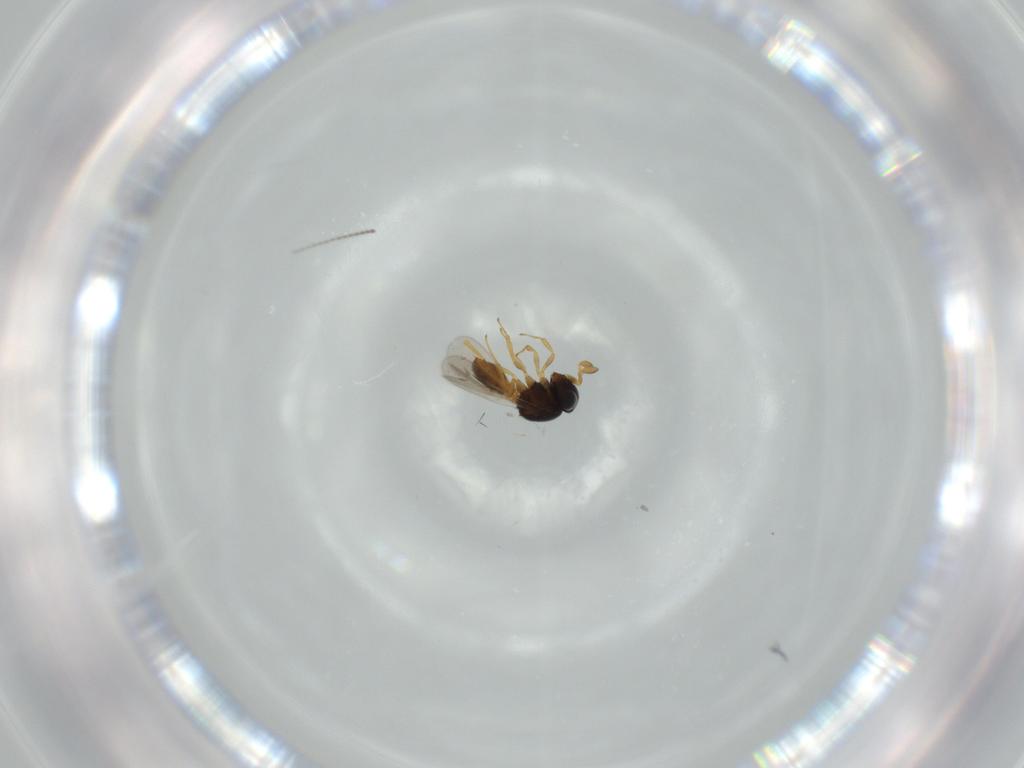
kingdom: Animalia
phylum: Arthropoda
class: Insecta
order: Hymenoptera
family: Scelionidae
